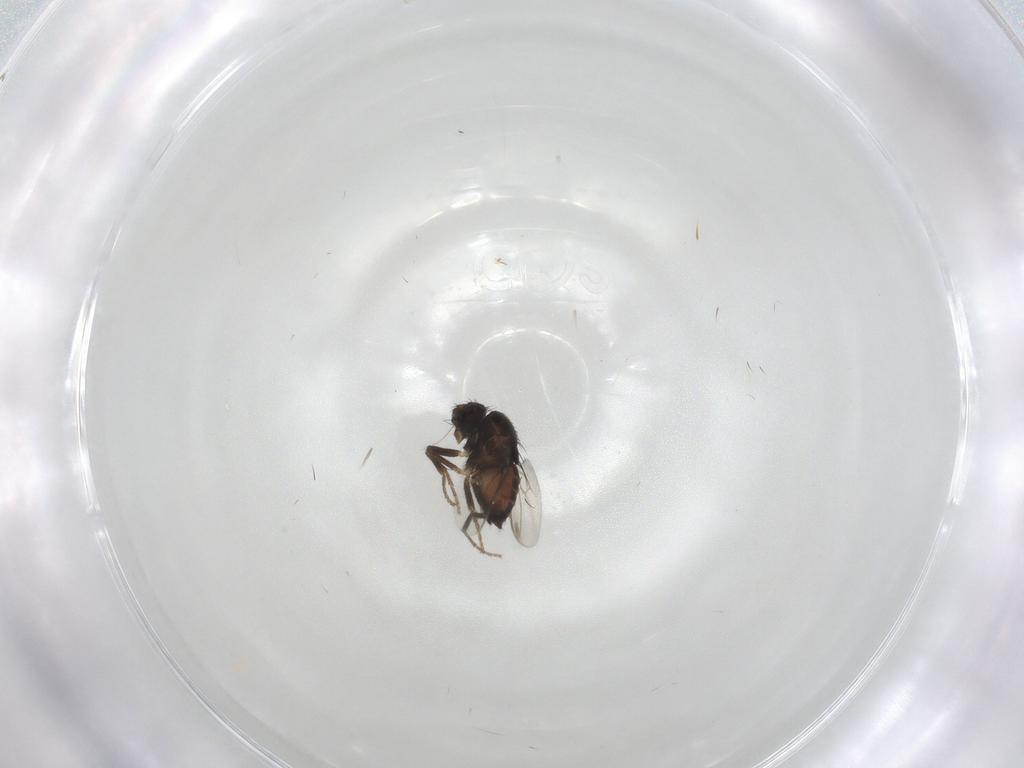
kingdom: Animalia
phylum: Arthropoda
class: Insecta
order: Diptera
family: Sphaeroceridae
